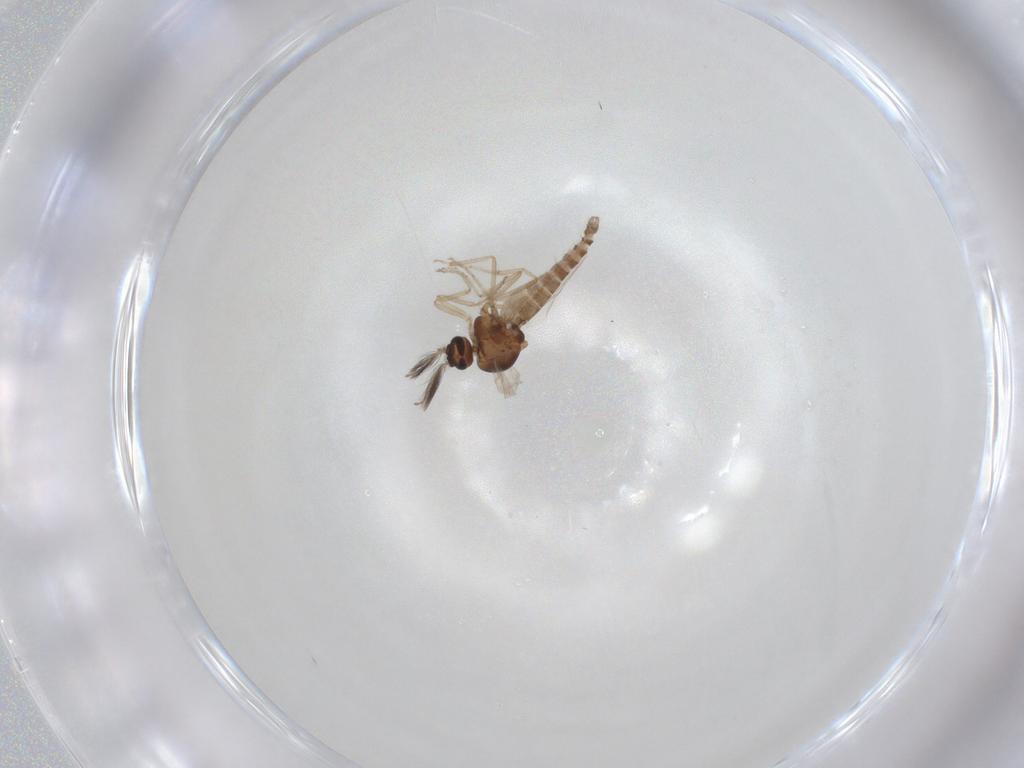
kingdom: Animalia
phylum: Arthropoda
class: Insecta
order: Diptera
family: Ceratopogonidae
